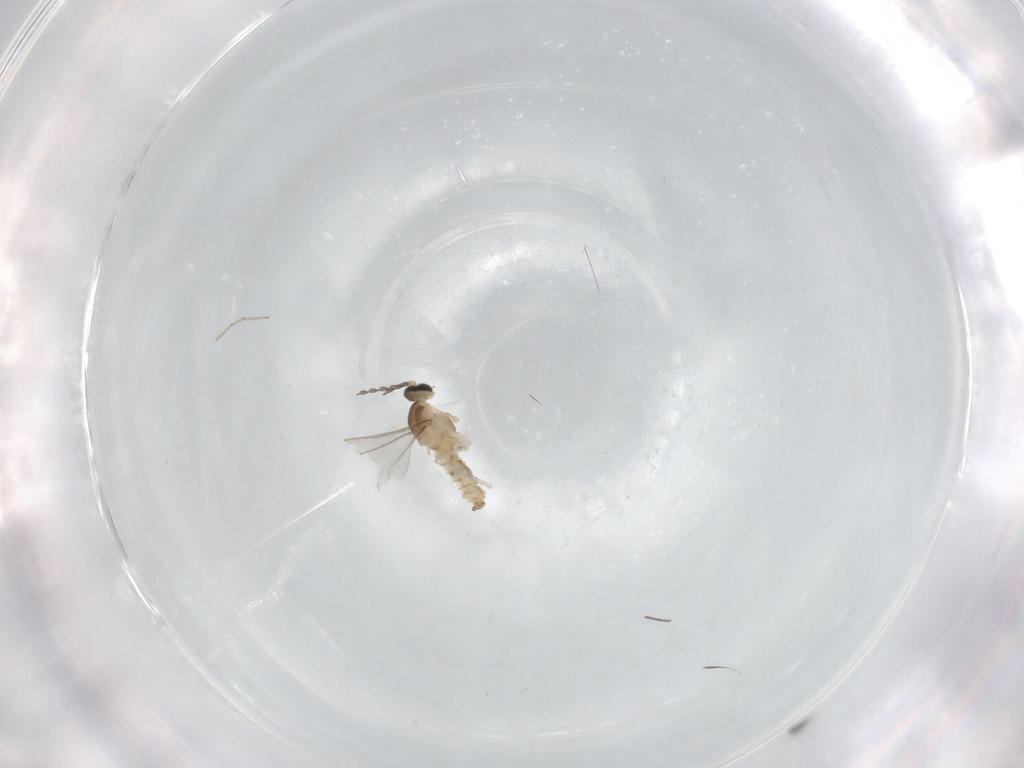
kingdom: Animalia
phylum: Arthropoda
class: Insecta
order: Diptera
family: Cecidomyiidae
